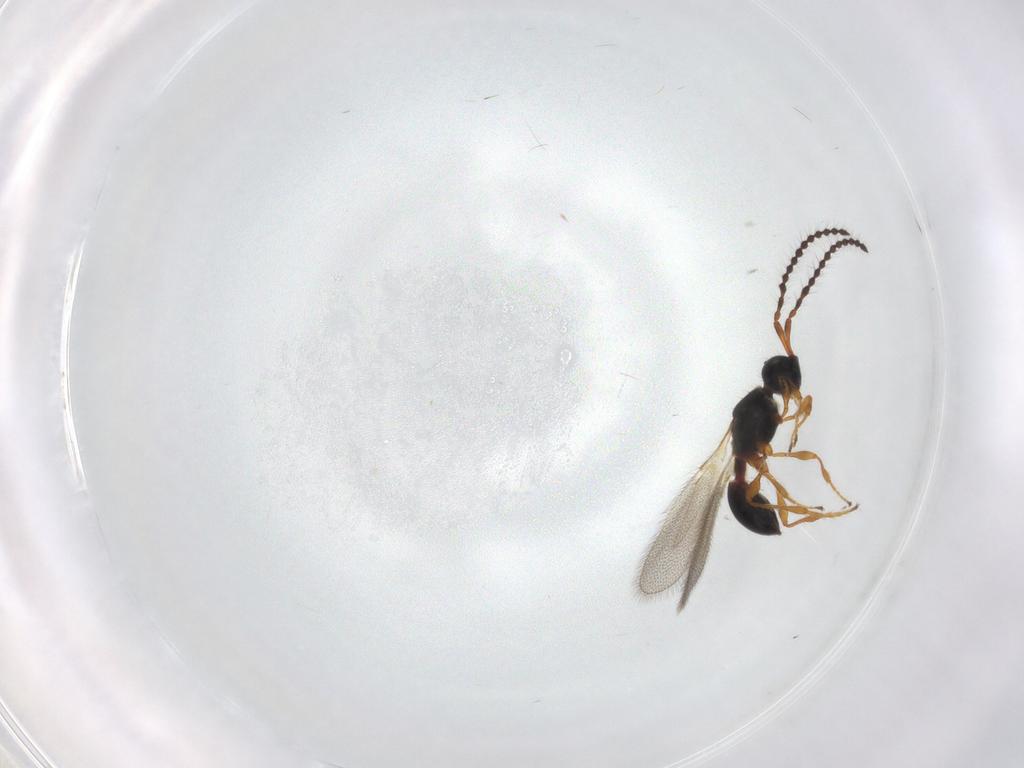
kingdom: Animalia
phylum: Arthropoda
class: Insecta
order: Hymenoptera
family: Diapriidae
